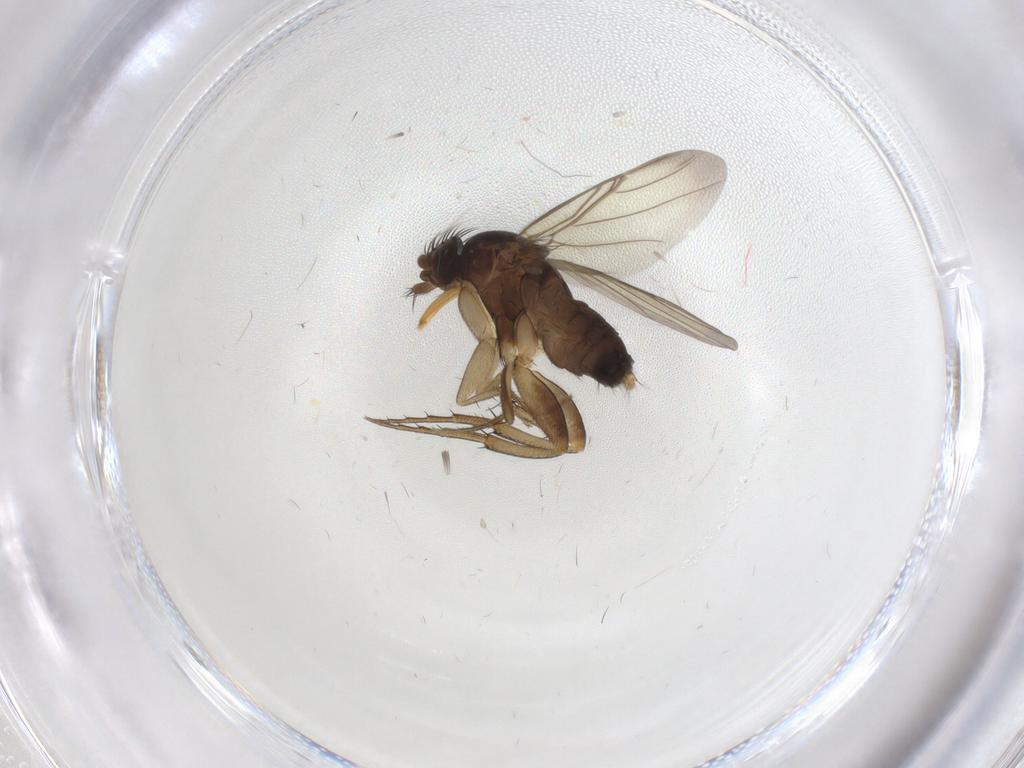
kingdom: Animalia
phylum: Arthropoda
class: Insecta
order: Diptera
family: Phoridae
